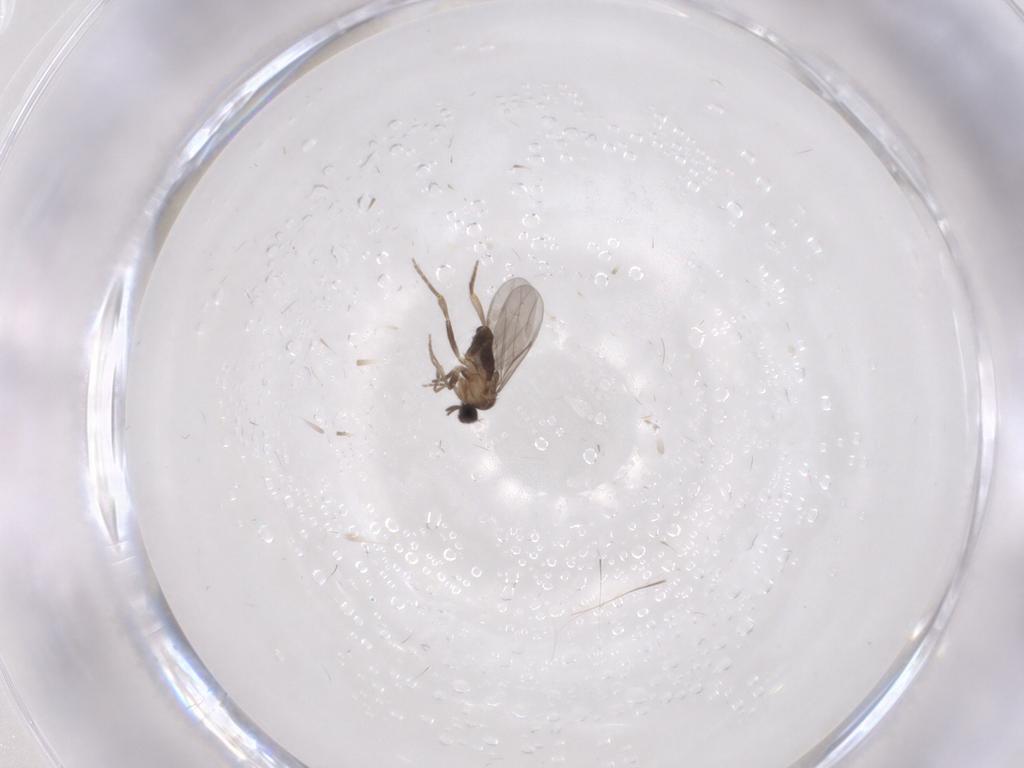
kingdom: Animalia
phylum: Arthropoda
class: Insecta
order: Diptera
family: Phoridae
